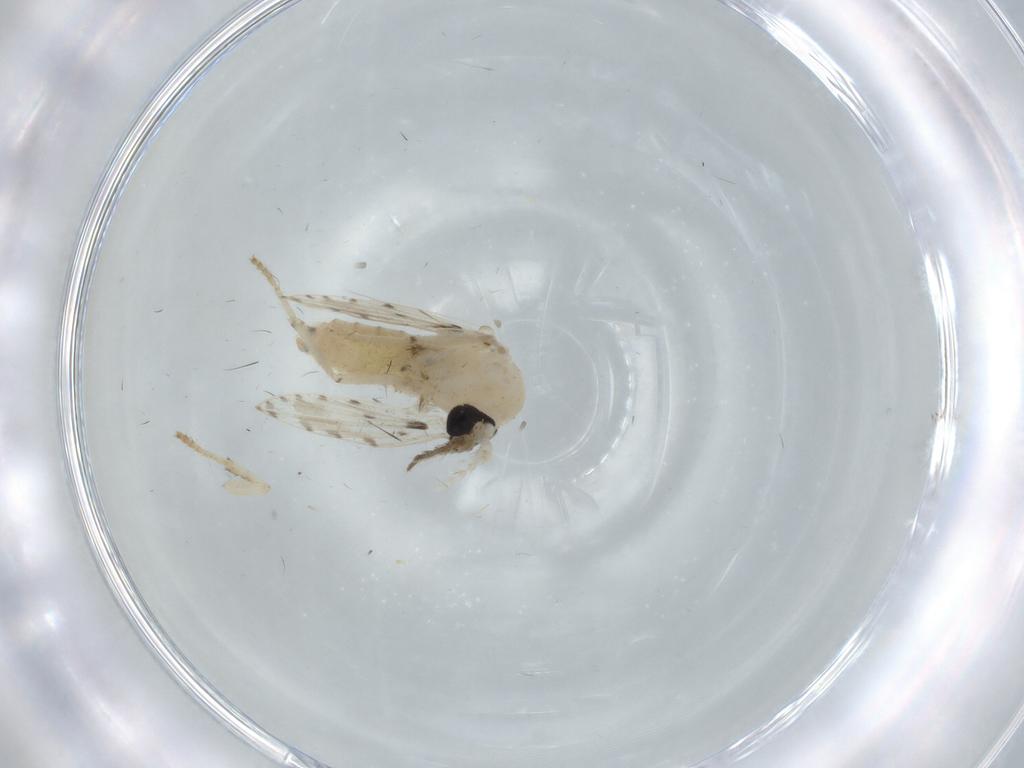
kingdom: Animalia
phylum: Arthropoda
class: Insecta
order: Diptera
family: Psychodidae
